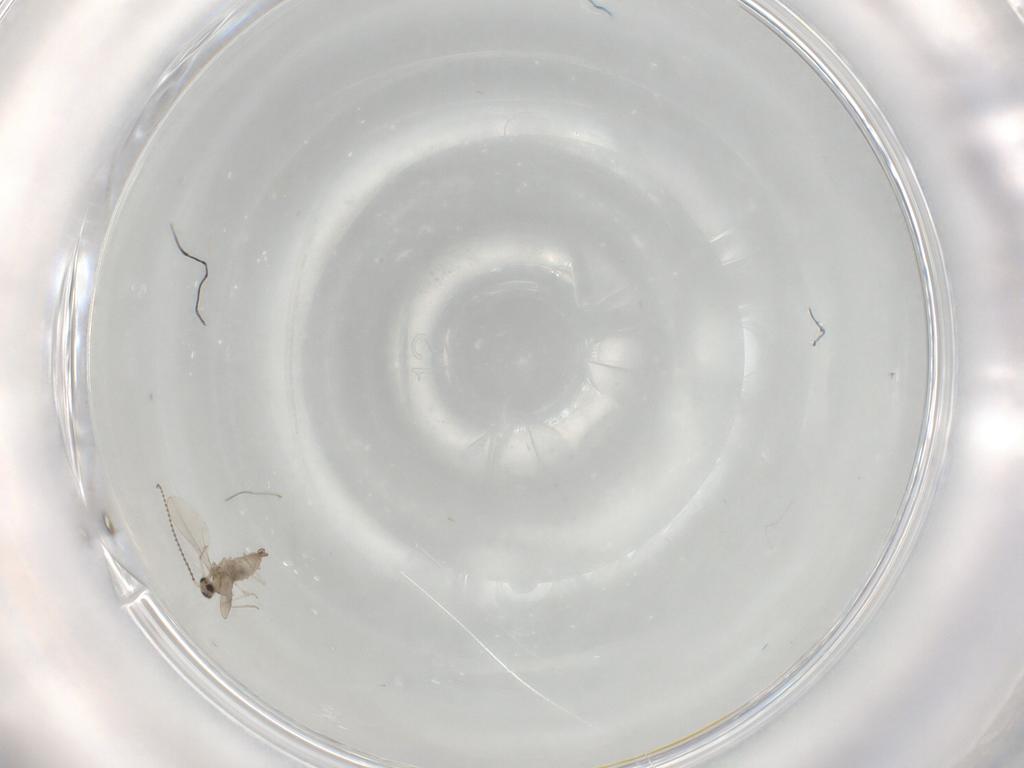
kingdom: Animalia
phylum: Arthropoda
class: Insecta
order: Diptera
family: Cecidomyiidae
